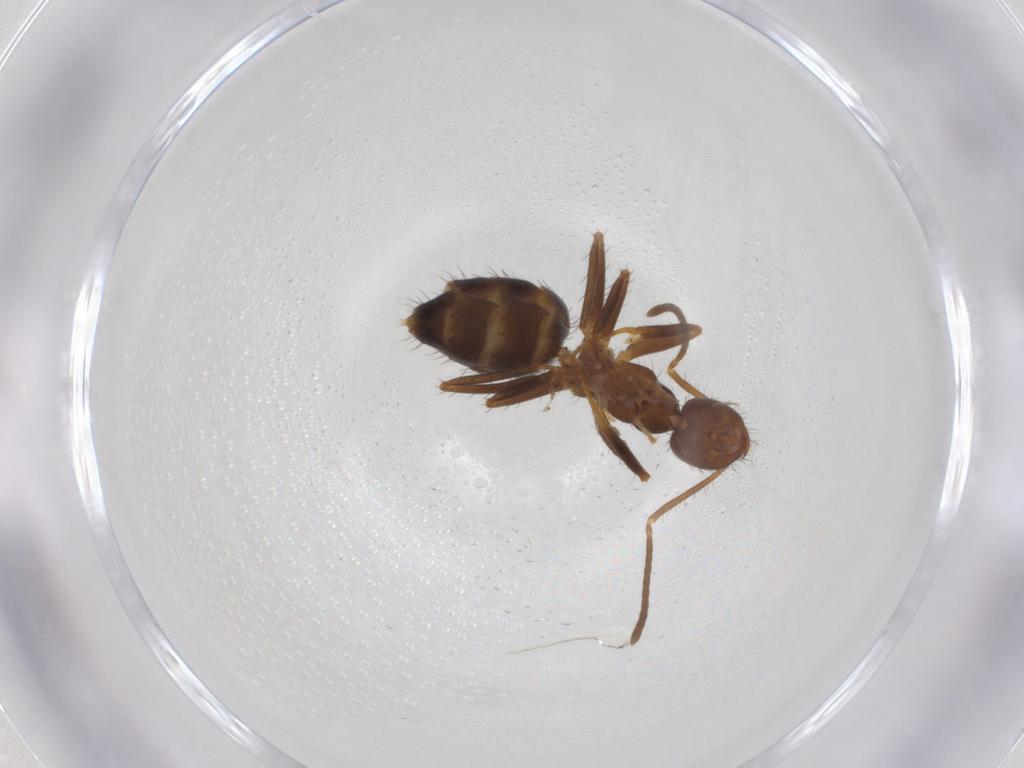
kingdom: Animalia
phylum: Arthropoda
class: Insecta
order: Hymenoptera
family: Formicidae
